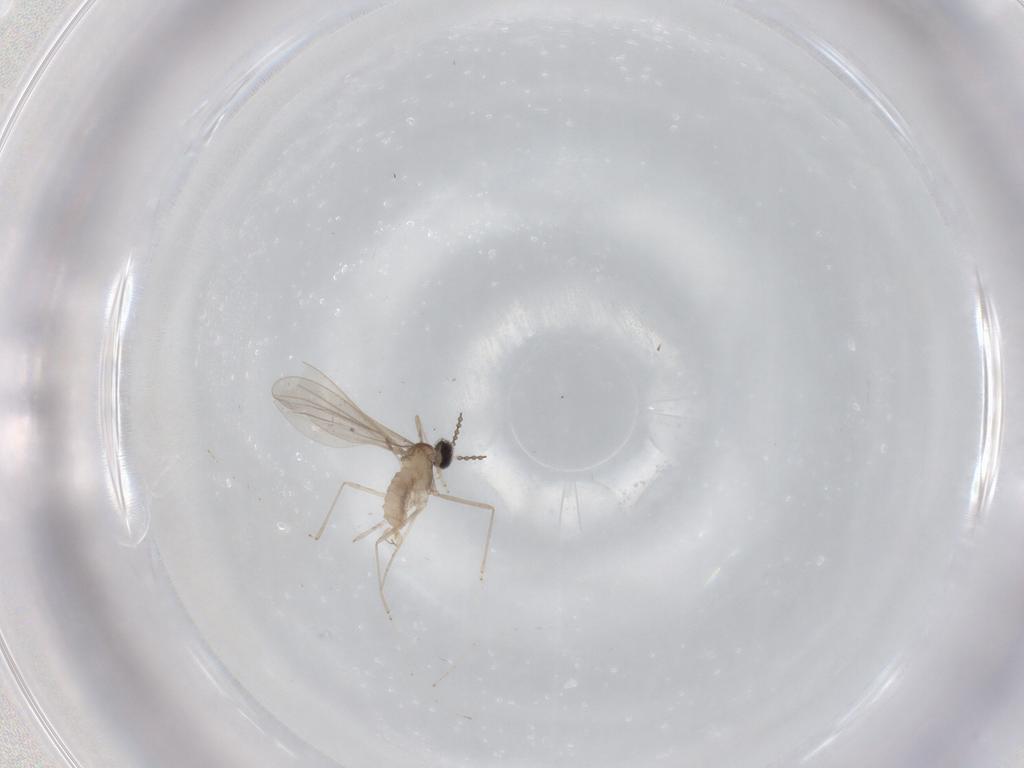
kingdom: Animalia
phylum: Arthropoda
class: Insecta
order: Diptera
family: Cecidomyiidae
